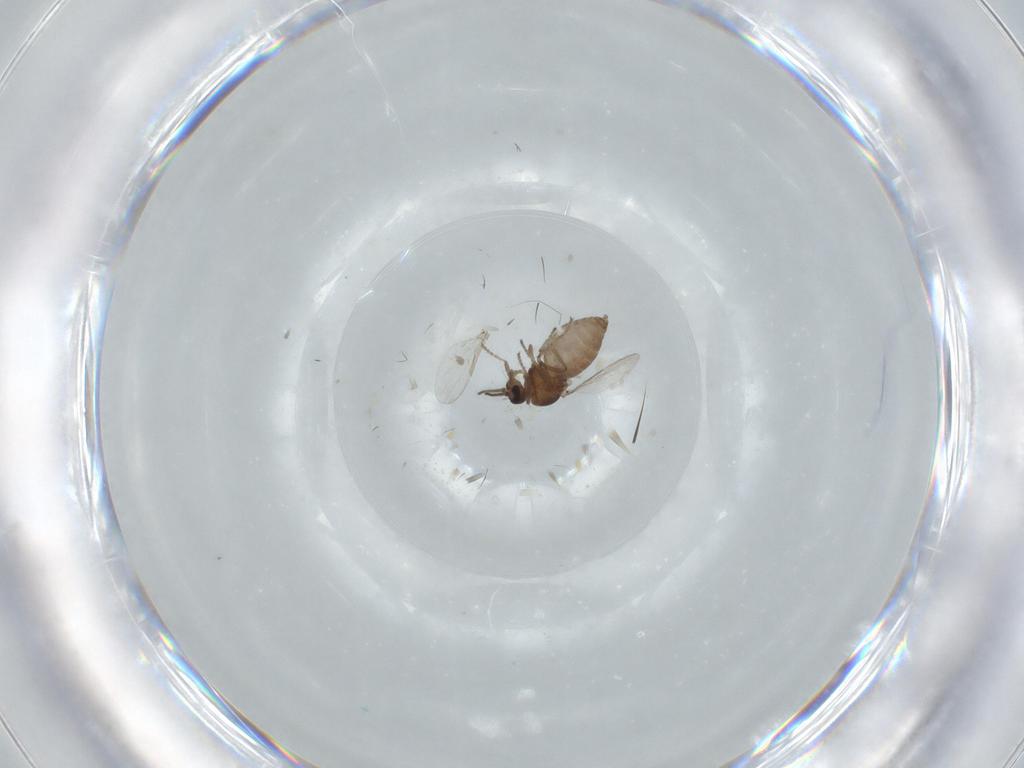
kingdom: Animalia
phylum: Arthropoda
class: Insecta
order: Diptera
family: Ceratopogonidae
